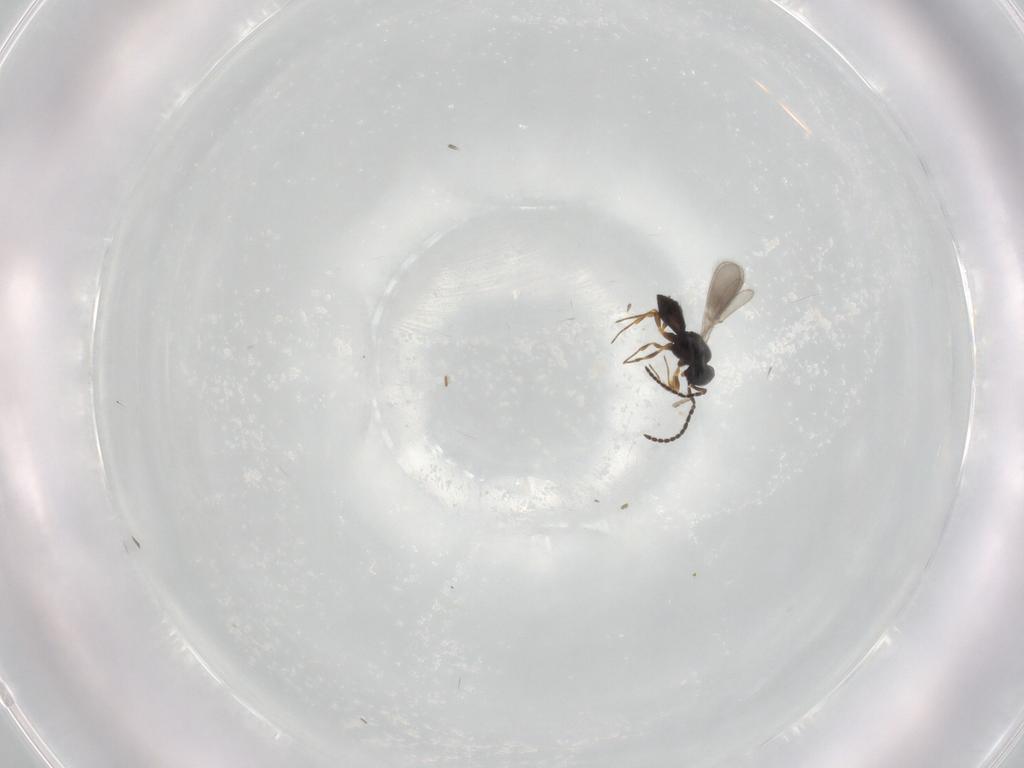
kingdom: Animalia
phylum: Arthropoda
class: Insecta
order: Hymenoptera
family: Scelionidae
